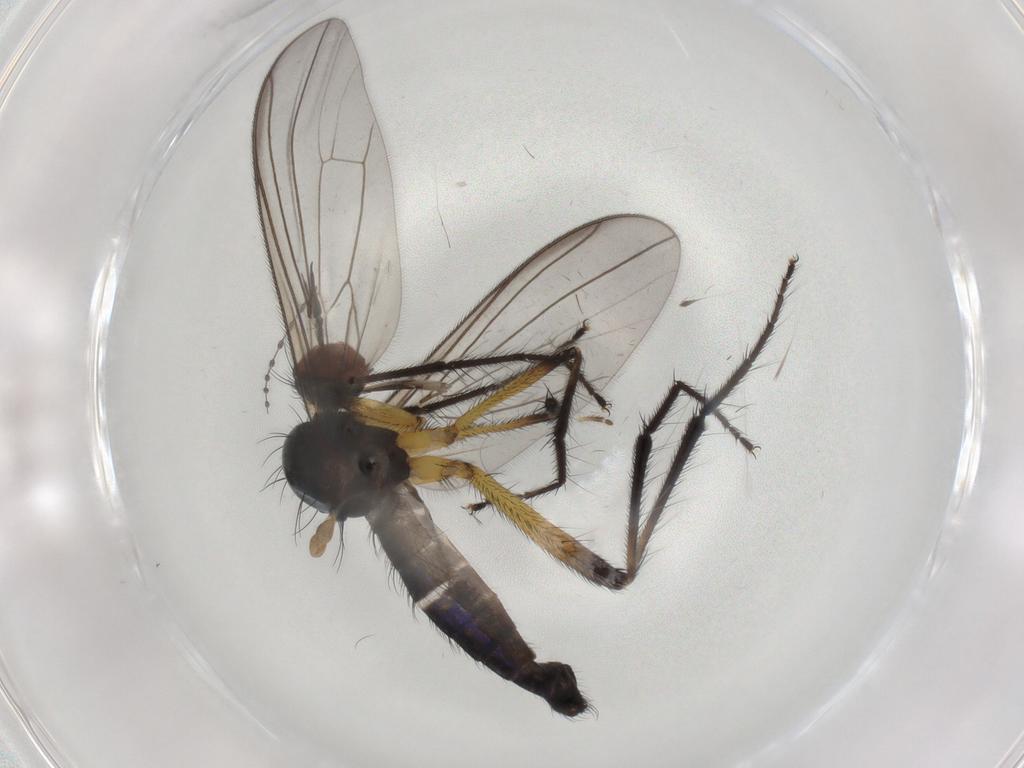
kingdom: Animalia
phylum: Arthropoda
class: Insecta
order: Diptera
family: Empididae
